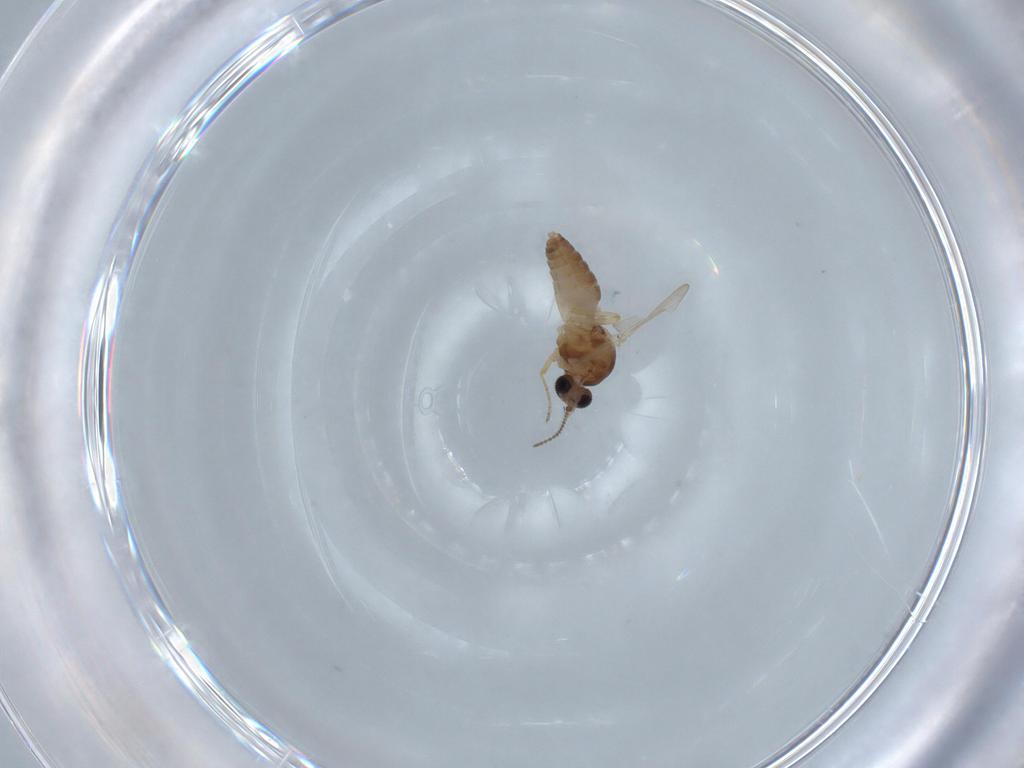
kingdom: Animalia
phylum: Arthropoda
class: Insecta
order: Diptera
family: Ceratopogonidae
